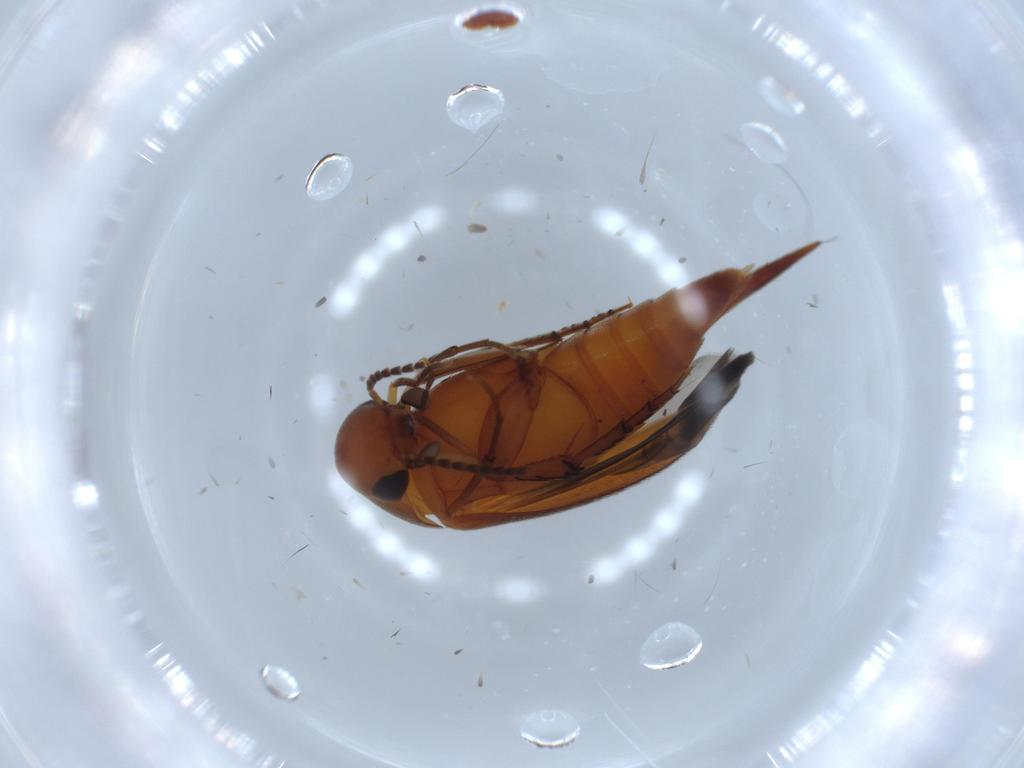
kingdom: Animalia
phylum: Arthropoda
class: Insecta
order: Coleoptera
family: Mordellidae
